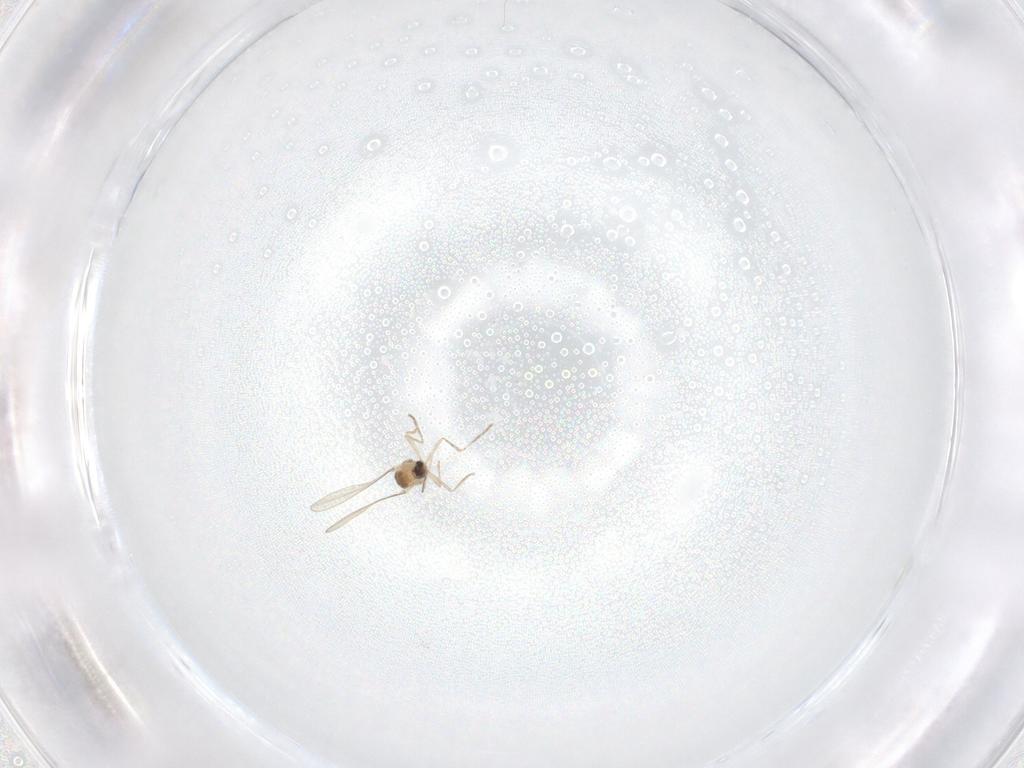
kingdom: Animalia
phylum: Arthropoda
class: Insecta
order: Diptera
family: Cecidomyiidae
